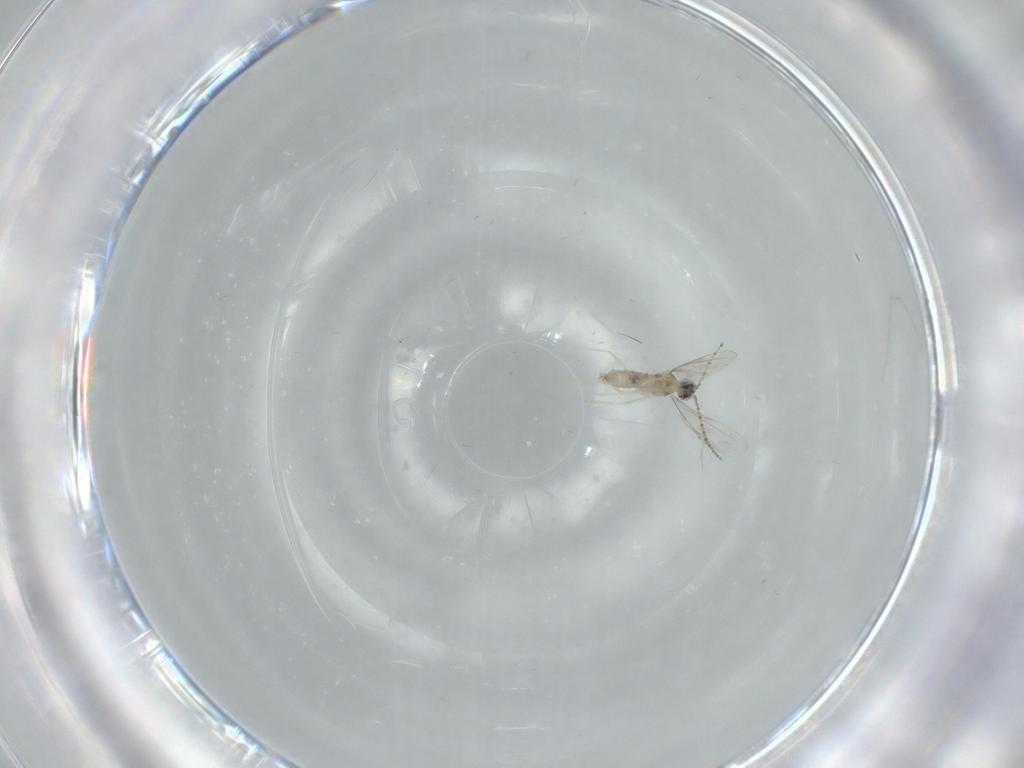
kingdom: Animalia
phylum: Arthropoda
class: Insecta
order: Diptera
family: Cecidomyiidae
